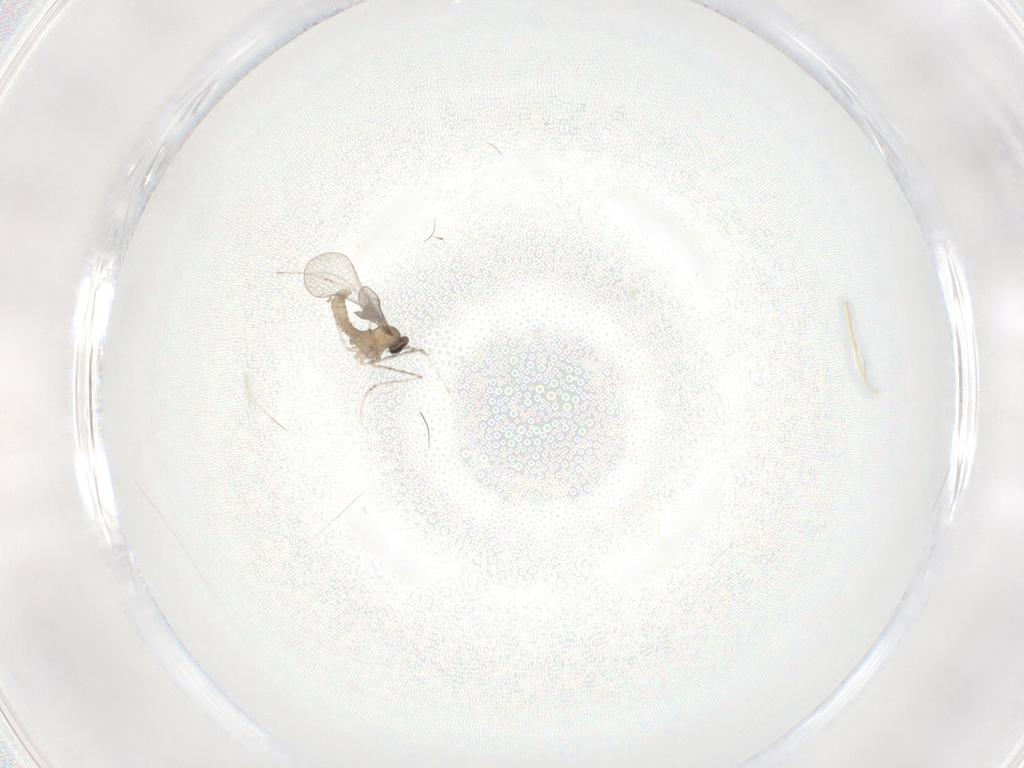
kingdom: Animalia
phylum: Arthropoda
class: Insecta
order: Diptera
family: Cecidomyiidae
